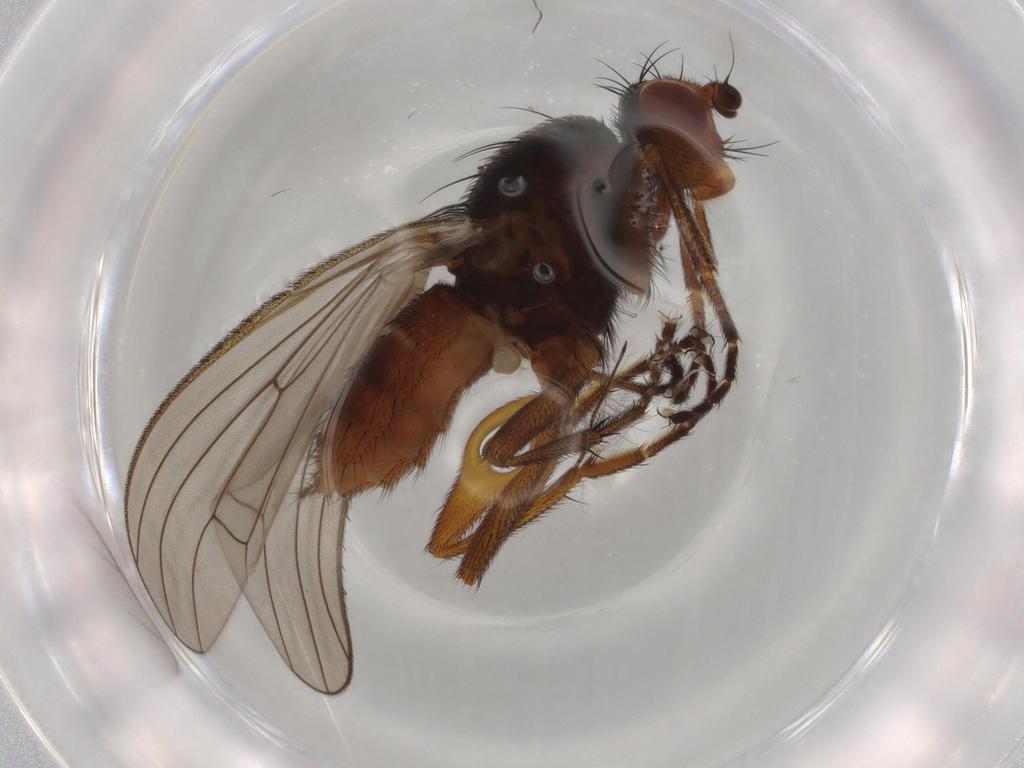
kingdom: Animalia
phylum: Arthropoda
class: Insecta
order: Diptera
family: Heleomyzidae
